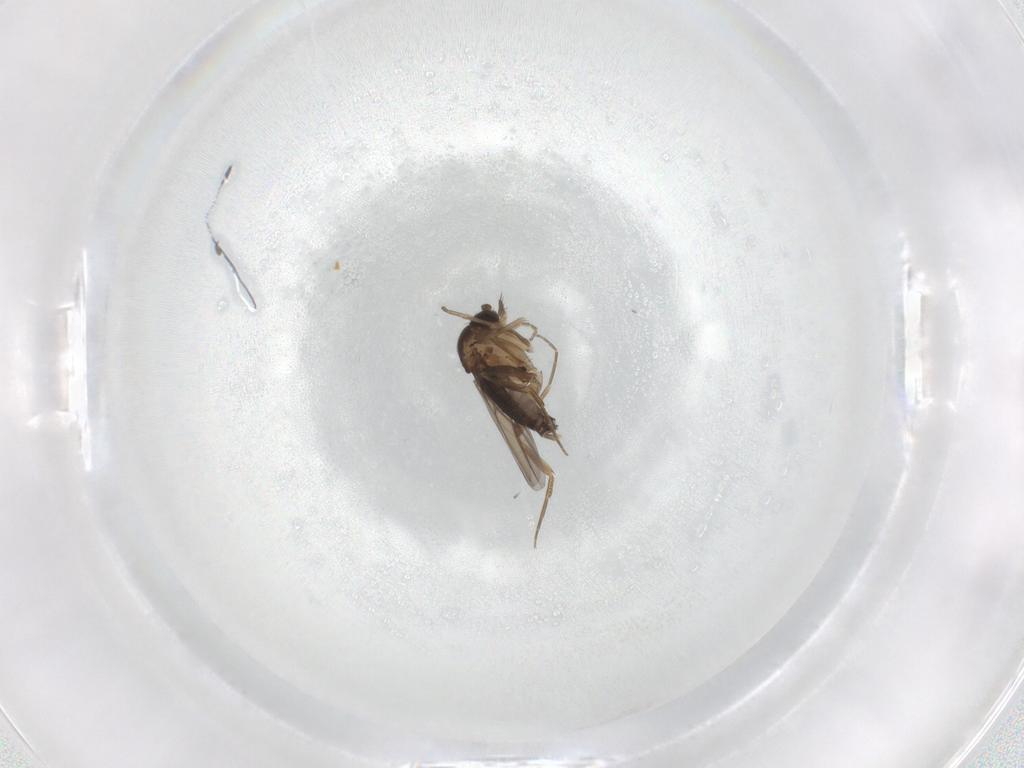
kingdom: Animalia
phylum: Arthropoda
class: Insecta
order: Diptera
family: Phoridae
